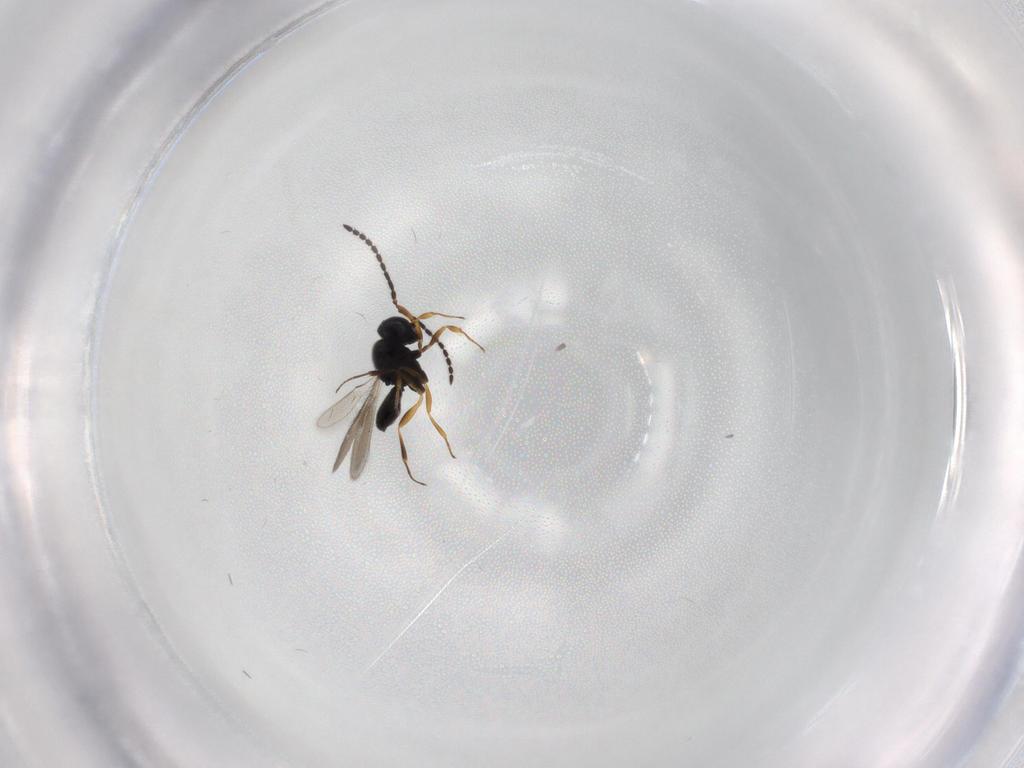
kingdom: Animalia
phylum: Arthropoda
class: Insecta
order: Hymenoptera
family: Scelionidae
